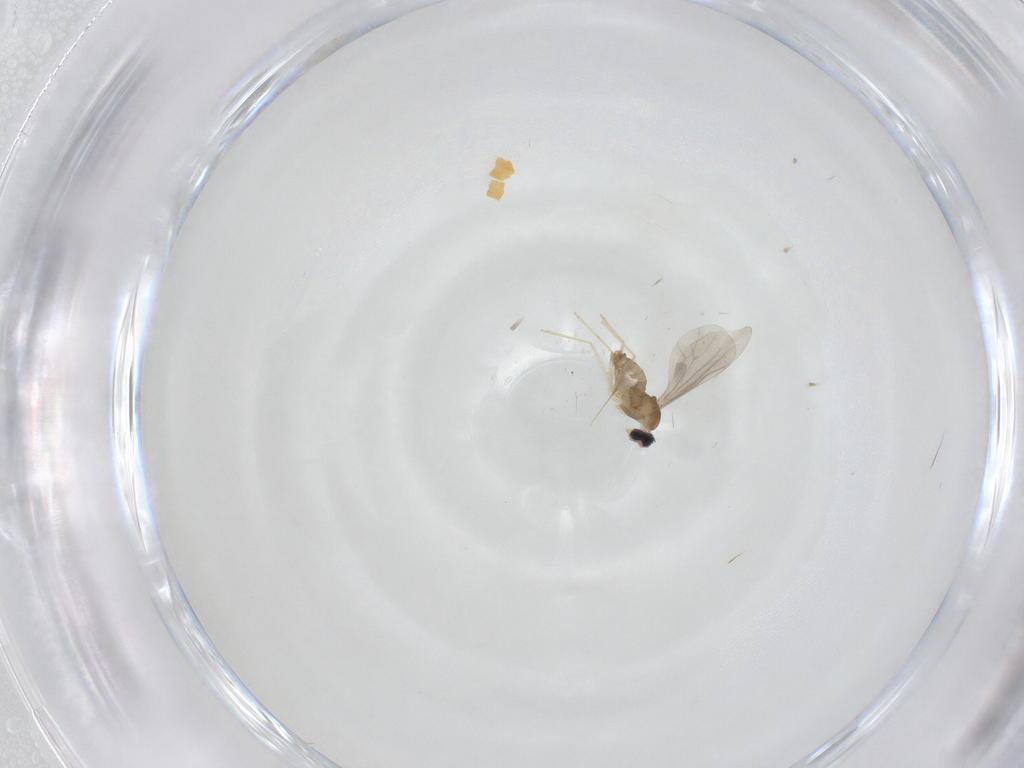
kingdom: Animalia
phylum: Arthropoda
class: Insecta
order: Diptera
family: Cecidomyiidae
